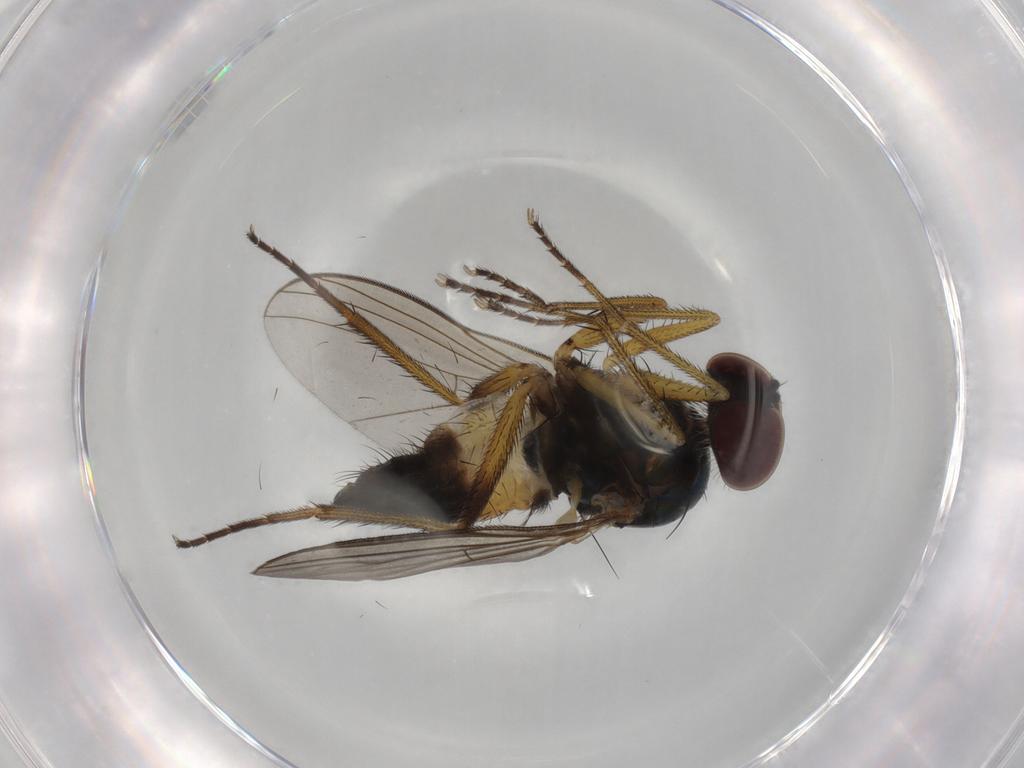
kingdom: Animalia
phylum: Arthropoda
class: Insecta
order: Diptera
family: Dolichopodidae
